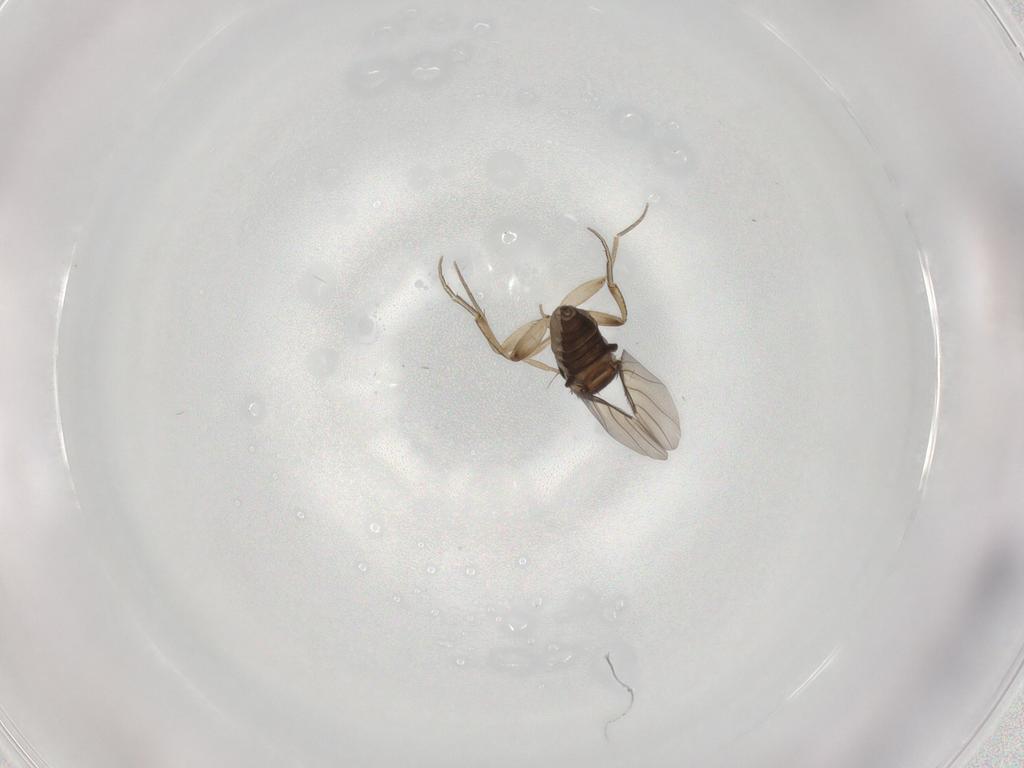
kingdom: Animalia
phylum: Arthropoda
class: Insecta
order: Diptera
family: Phoridae
